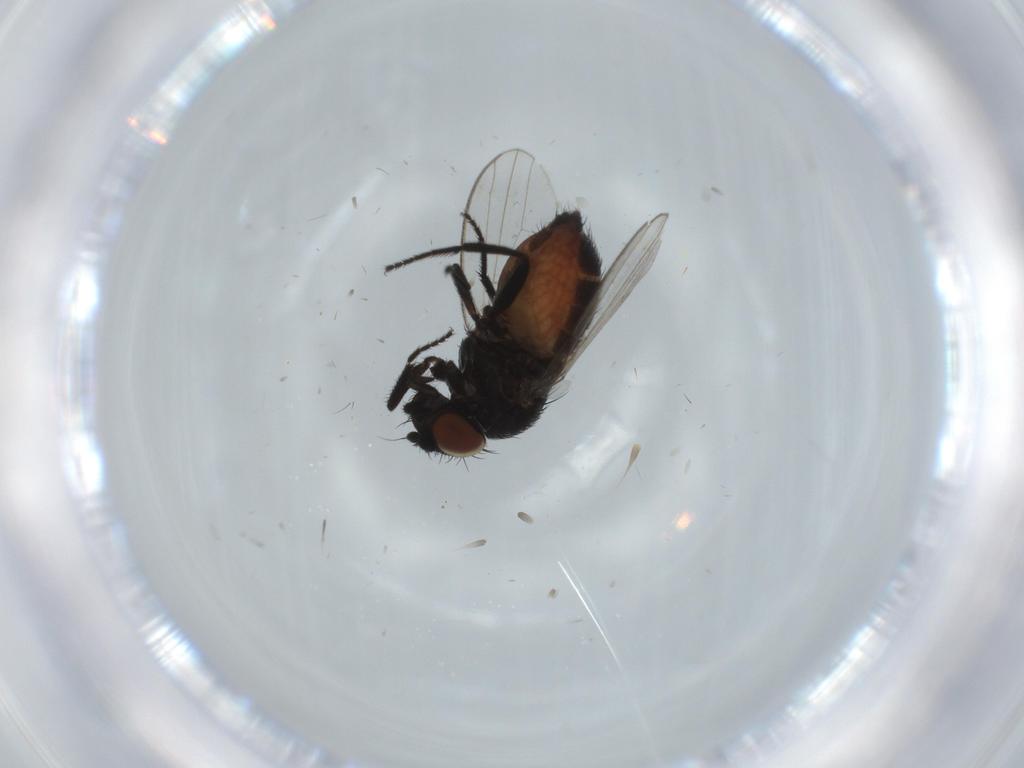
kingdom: Animalia
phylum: Arthropoda
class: Insecta
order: Diptera
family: Milichiidae
